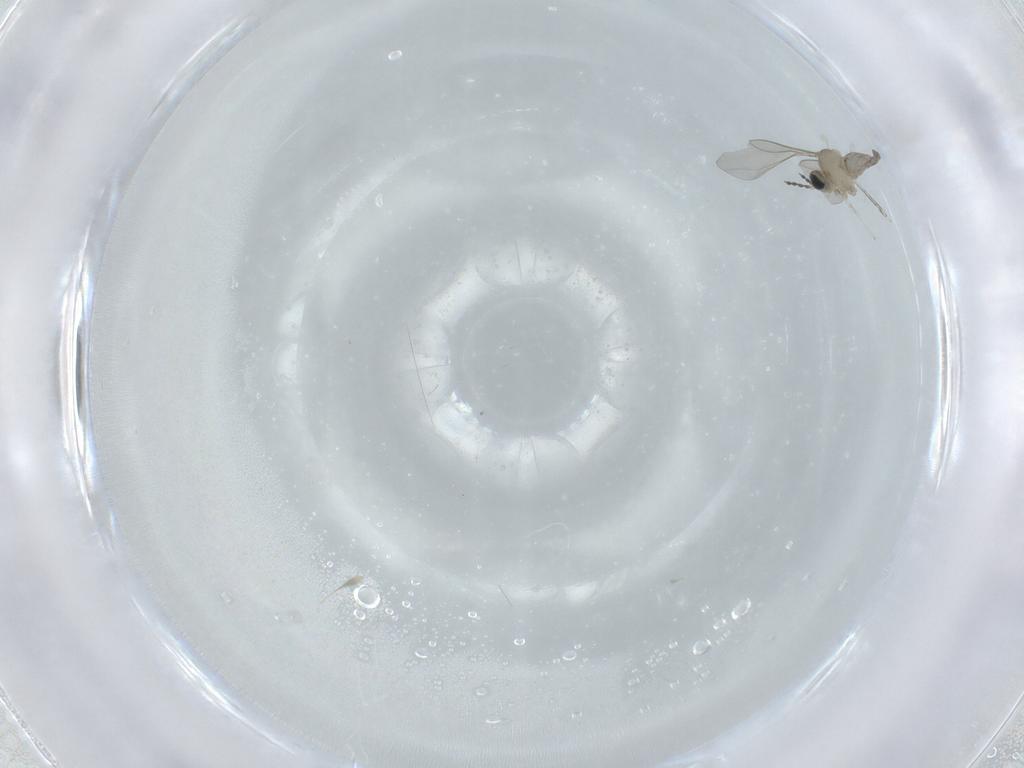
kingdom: Animalia
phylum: Arthropoda
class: Insecta
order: Diptera
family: Cecidomyiidae
